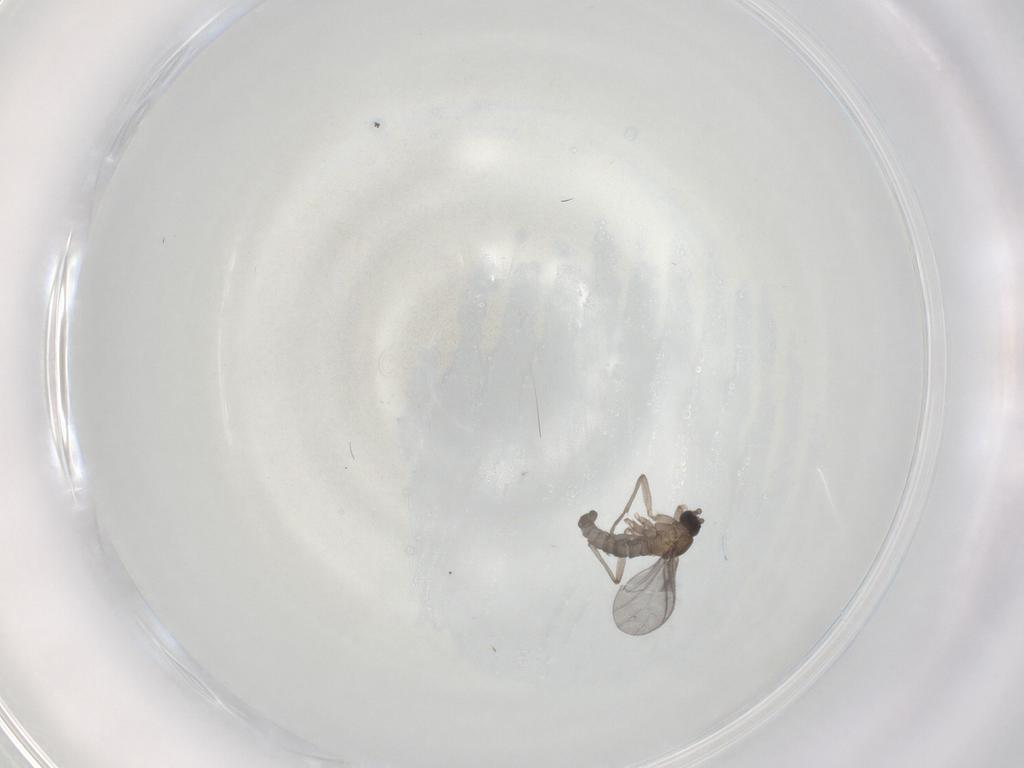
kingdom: Animalia
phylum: Arthropoda
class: Insecta
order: Diptera
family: Sciaridae
